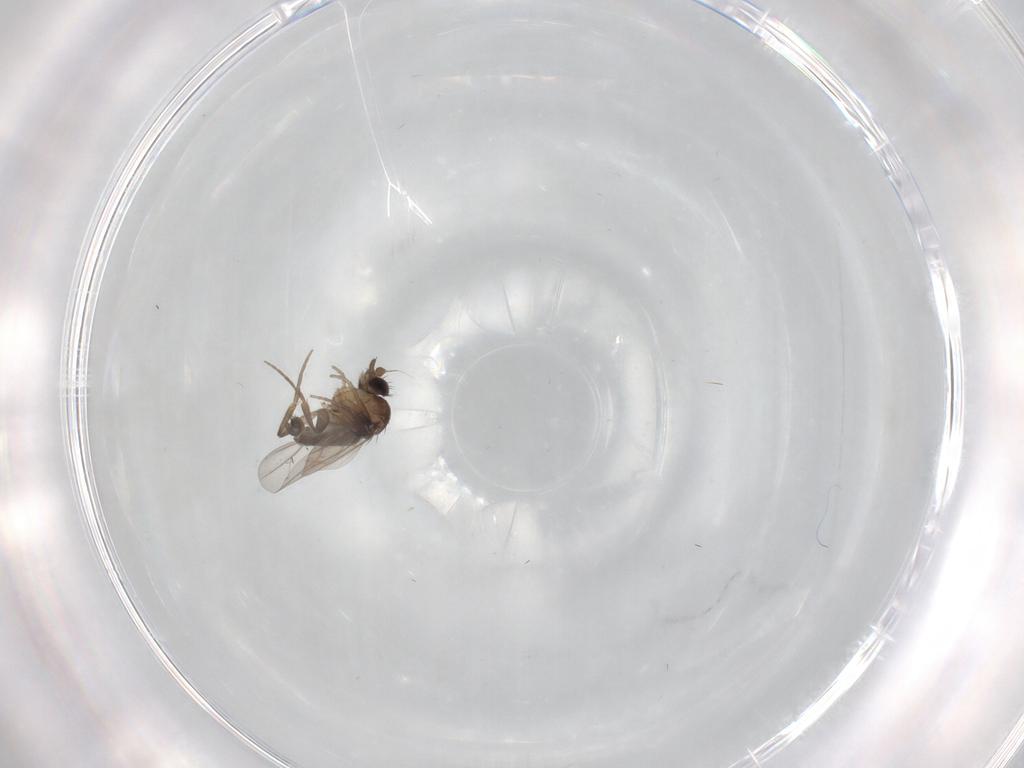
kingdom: Animalia
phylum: Arthropoda
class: Insecta
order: Diptera
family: Phoridae
